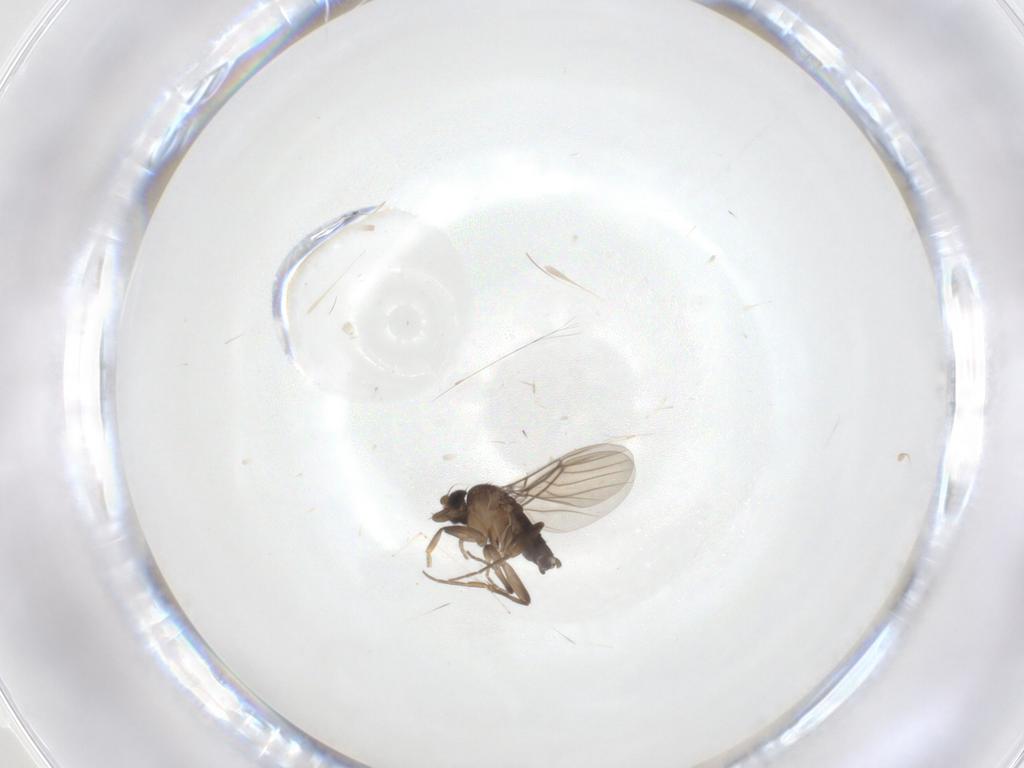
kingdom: Animalia
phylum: Arthropoda
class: Insecta
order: Diptera
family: Phoridae
